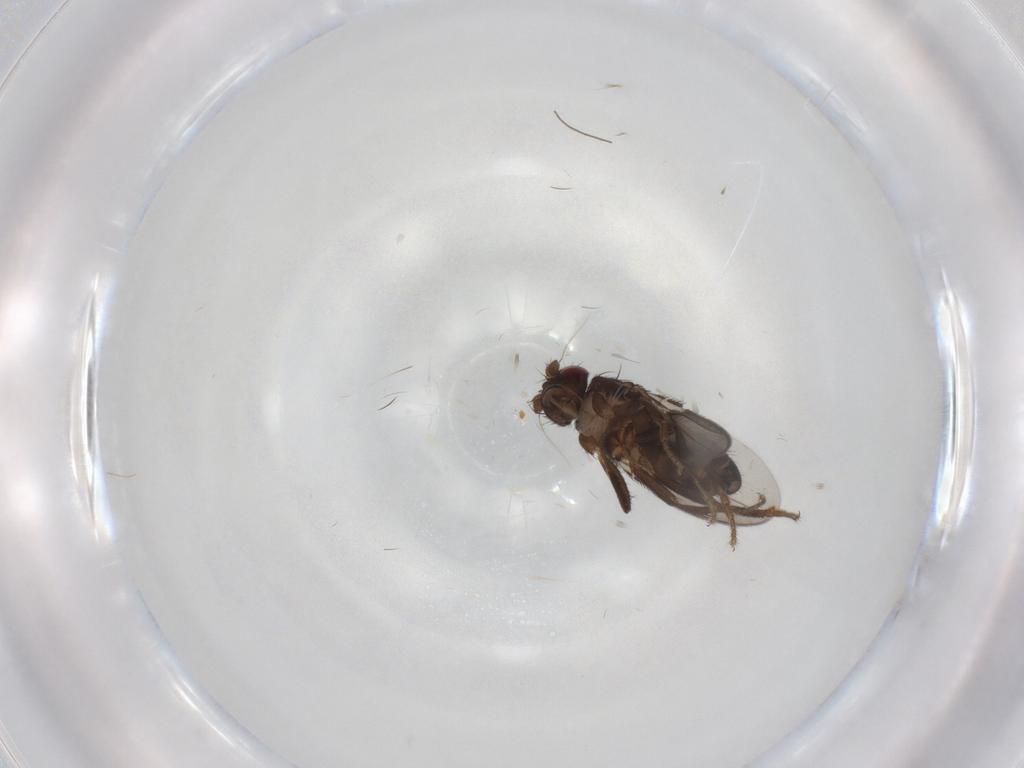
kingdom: Animalia
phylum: Arthropoda
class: Insecta
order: Diptera
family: Sphaeroceridae
